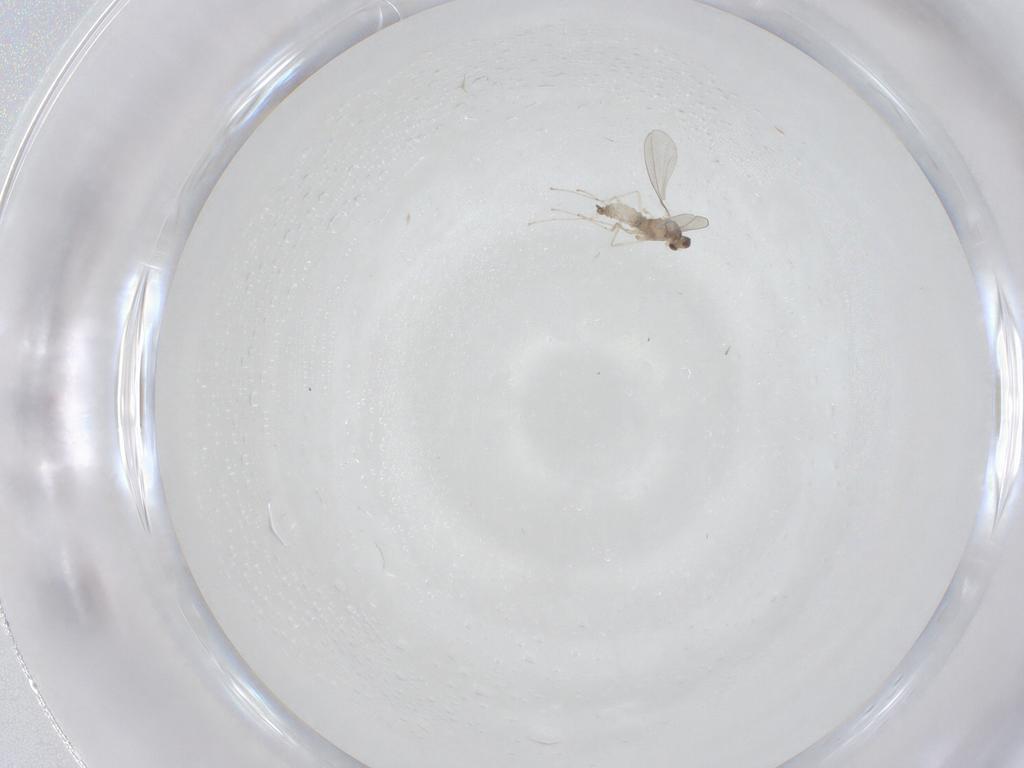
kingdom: Animalia
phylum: Arthropoda
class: Insecta
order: Diptera
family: Cecidomyiidae
